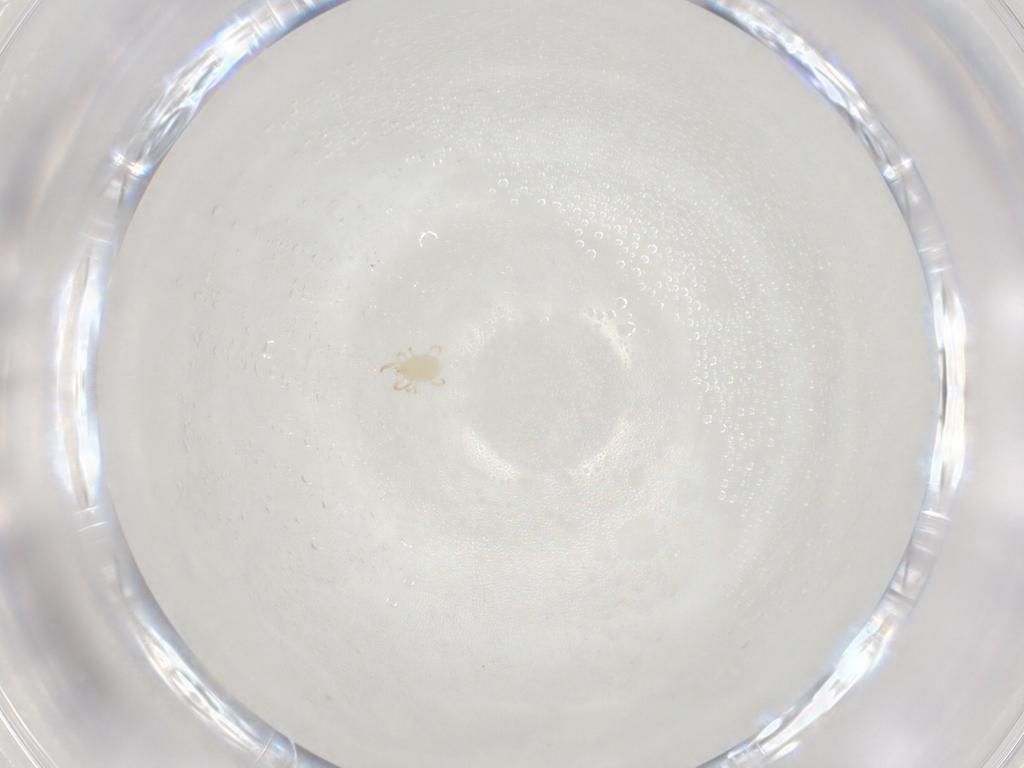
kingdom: Animalia
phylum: Arthropoda
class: Arachnida
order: Mesostigmata
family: Phytoseiidae
